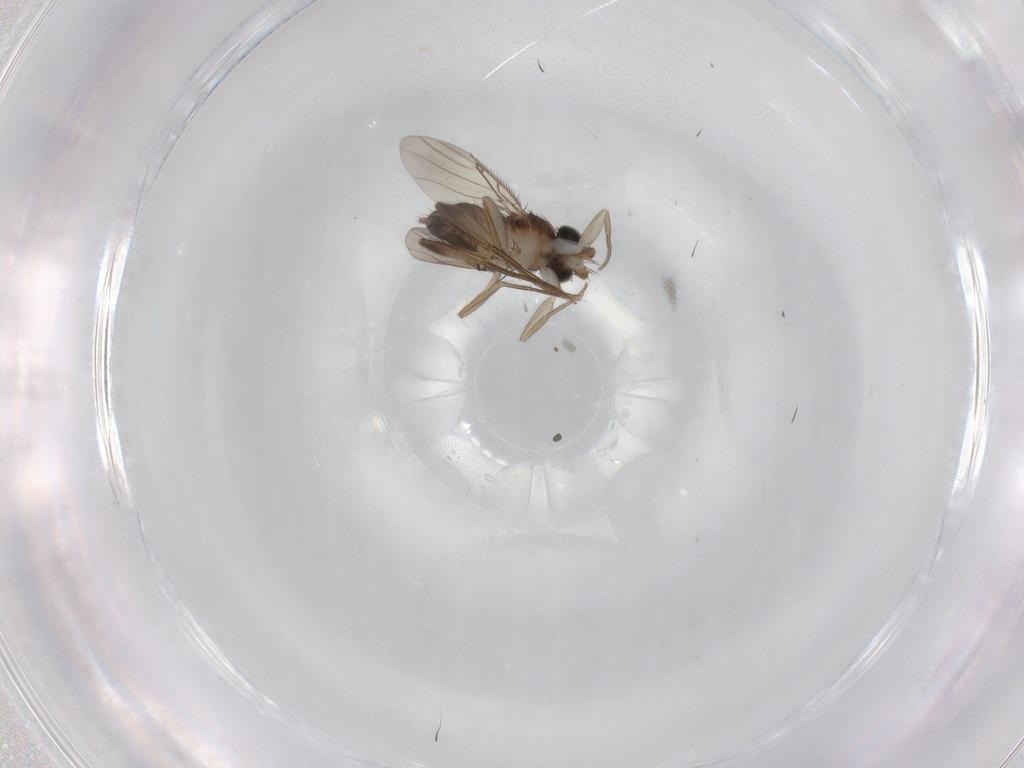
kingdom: Animalia
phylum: Arthropoda
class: Insecta
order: Diptera
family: Phoridae
